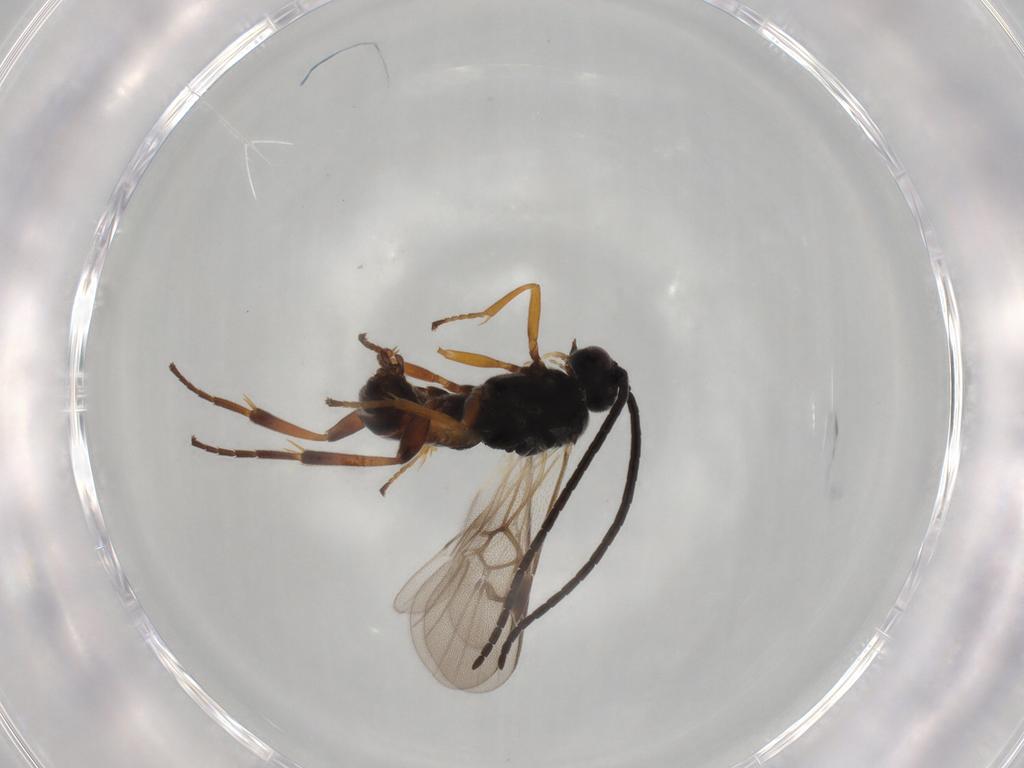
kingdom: Animalia
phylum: Arthropoda
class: Insecta
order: Hymenoptera
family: Braconidae
